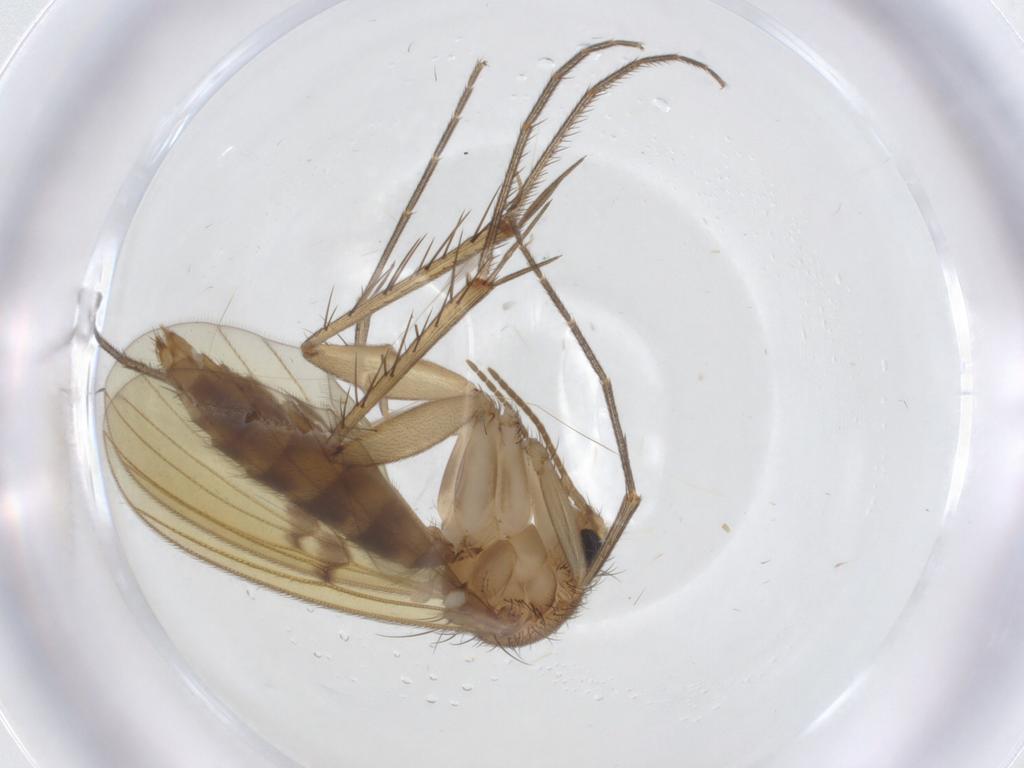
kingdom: Animalia
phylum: Arthropoda
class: Insecta
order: Diptera
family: Mycetophilidae
